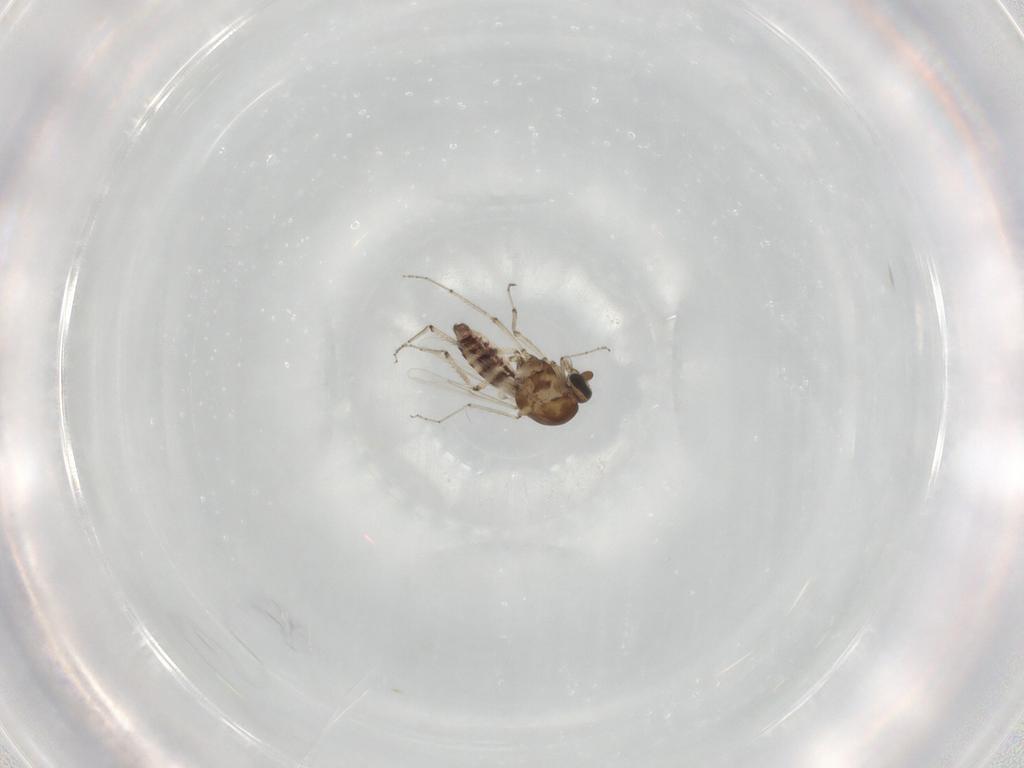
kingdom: Animalia
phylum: Arthropoda
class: Insecta
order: Diptera
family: Ceratopogonidae
